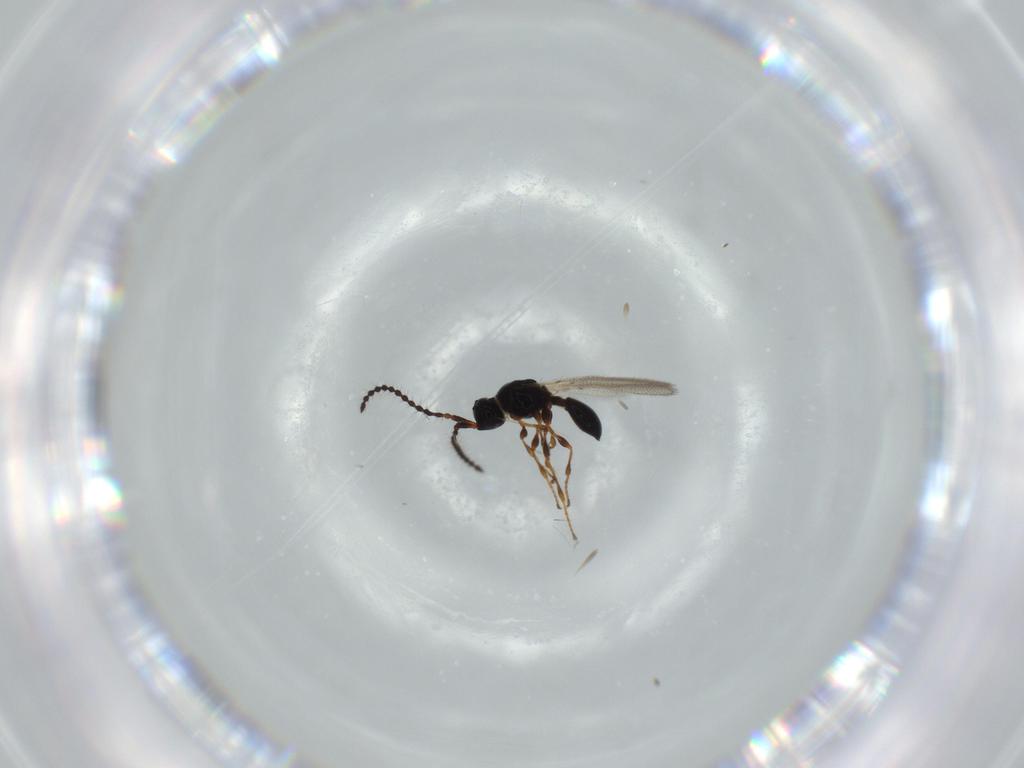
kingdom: Animalia
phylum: Arthropoda
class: Insecta
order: Hymenoptera
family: Diapriidae
